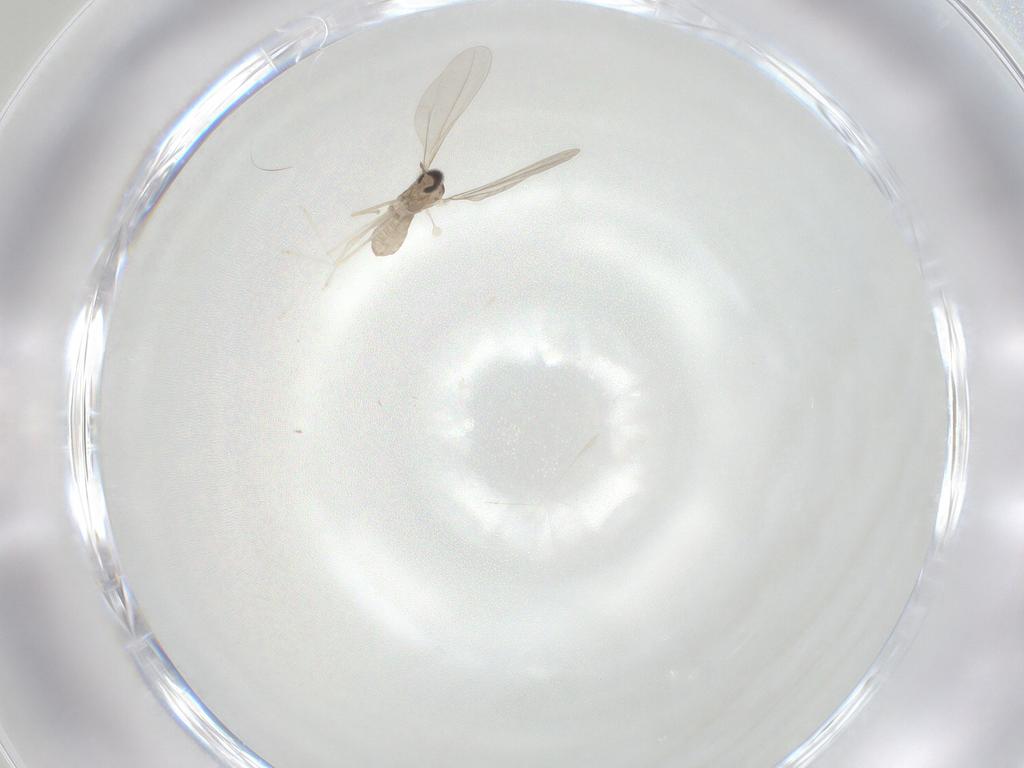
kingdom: Animalia
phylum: Arthropoda
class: Insecta
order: Diptera
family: Cecidomyiidae
